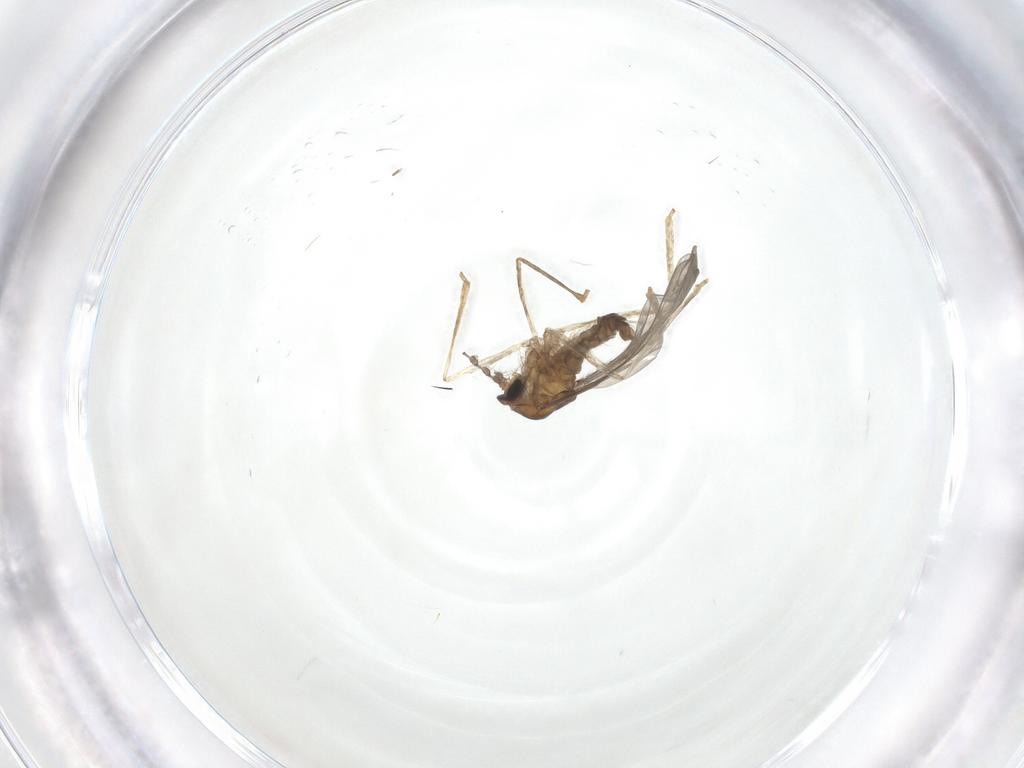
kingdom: Animalia
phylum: Arthropoda
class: Insecta
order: Diptera
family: Cecidomyiidae
